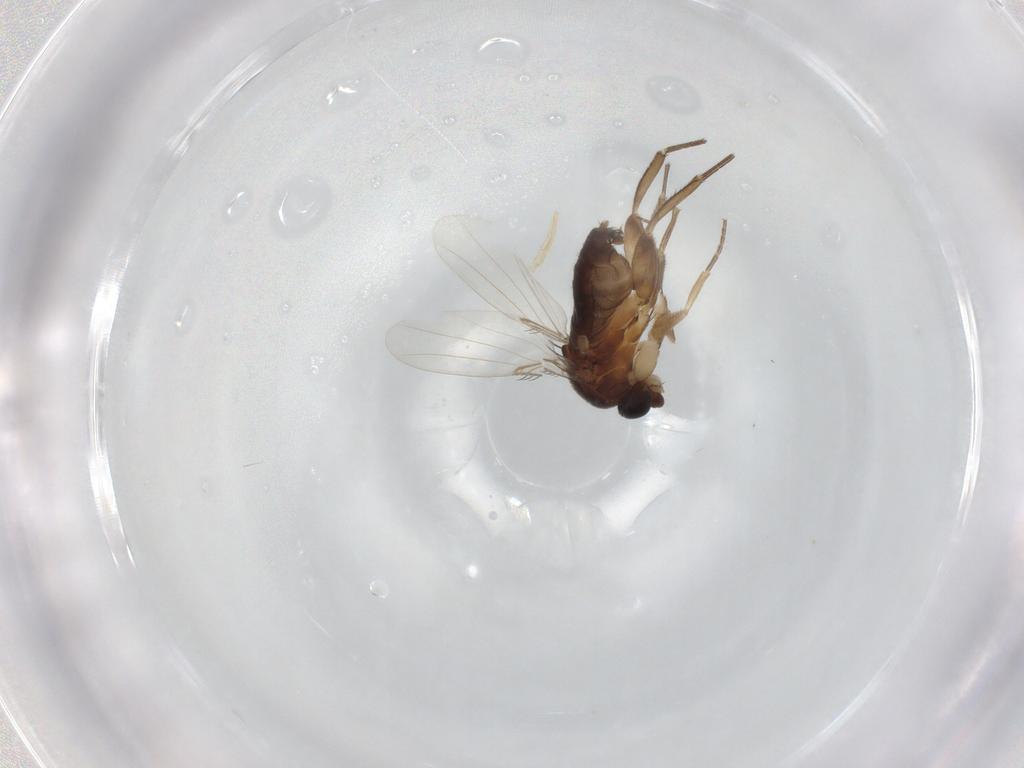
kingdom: Animalia
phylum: Arthropoda
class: Insecta
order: Diptera
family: Phoridae
